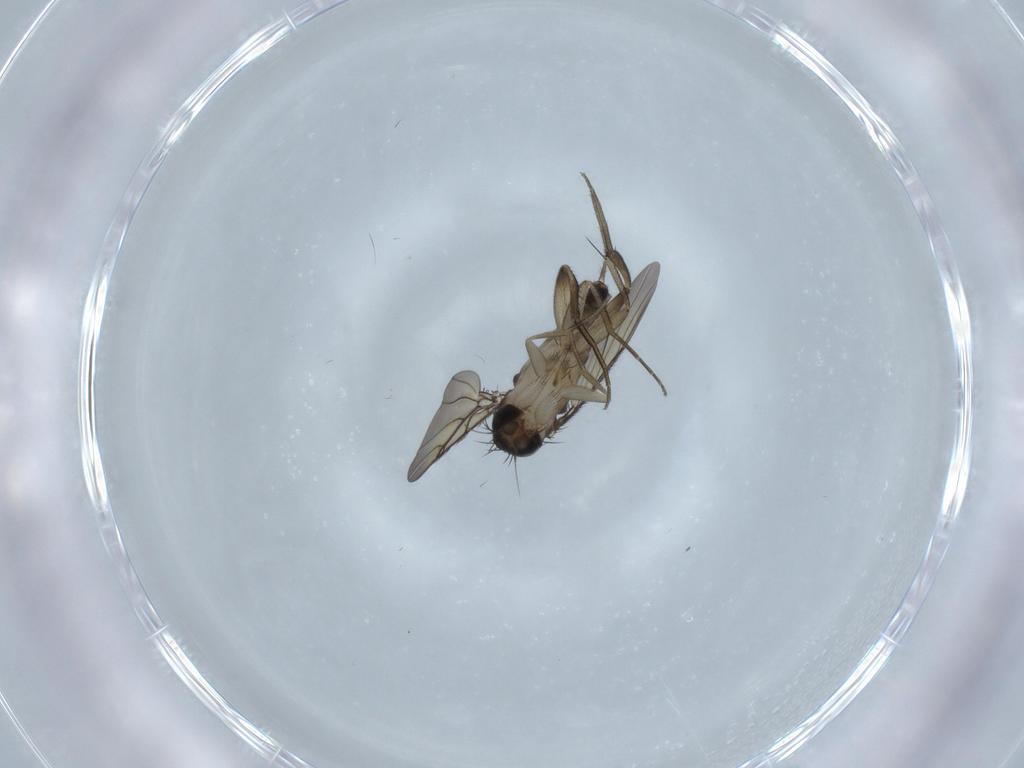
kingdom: Animalia
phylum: Arthropoda
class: Insecta
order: Diptera
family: Phoridae
